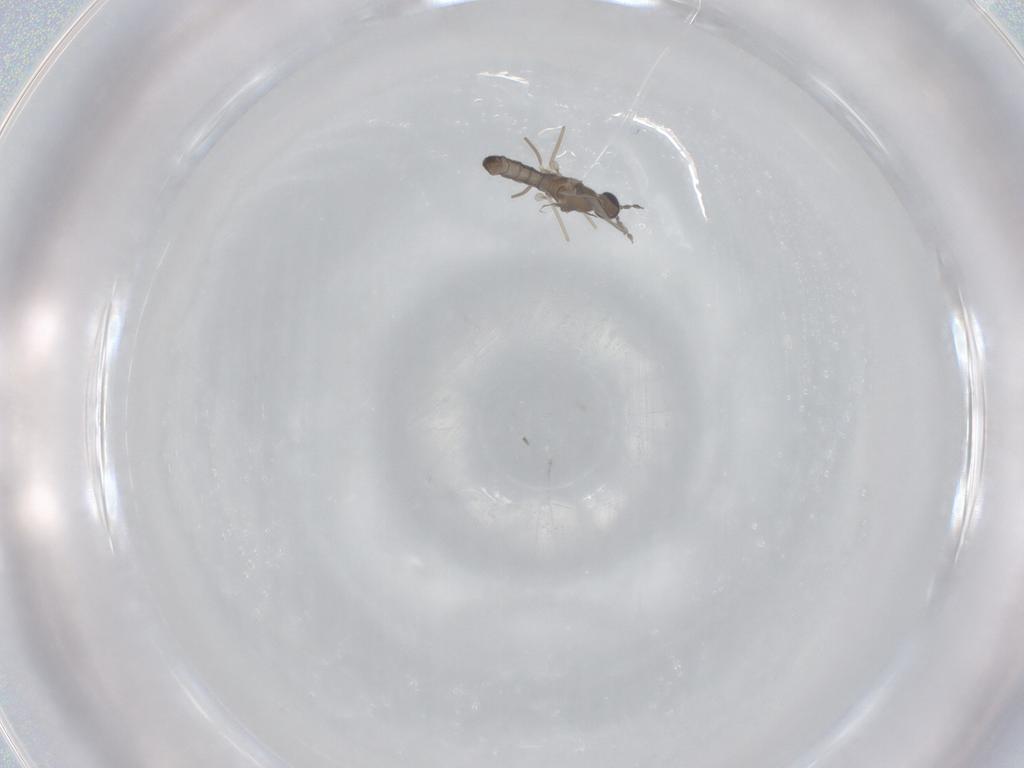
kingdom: Animalia
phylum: Arthropoda
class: Insecta
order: Diptera
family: Cecidomyiidae
